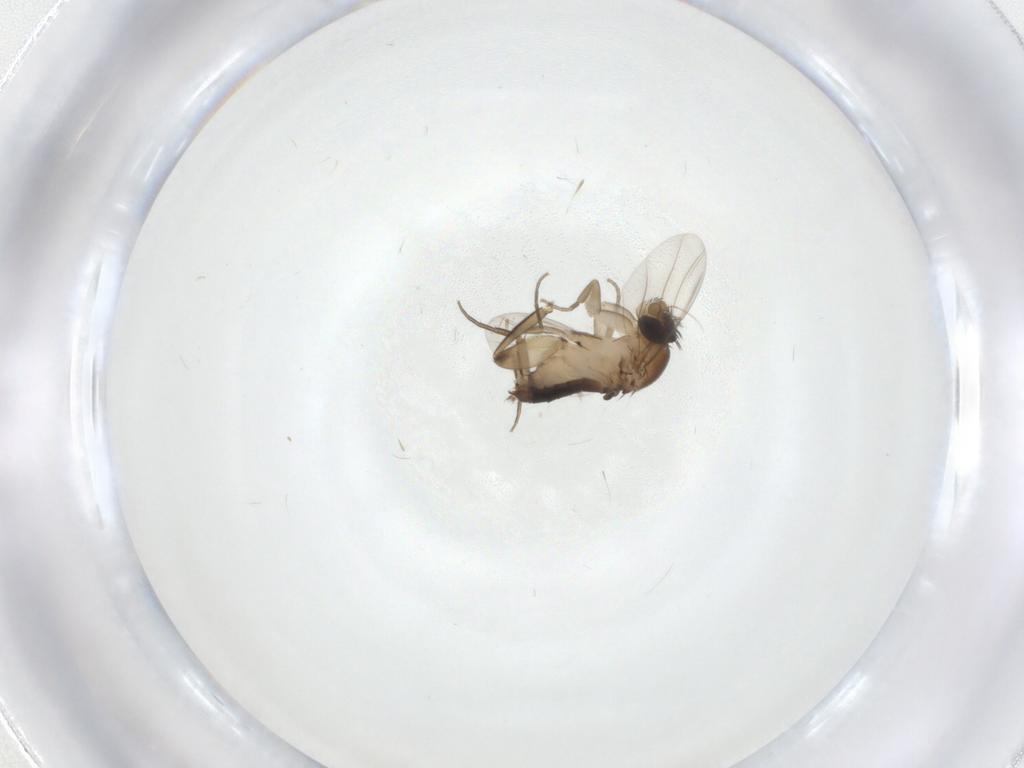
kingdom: Animalia
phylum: Arthropoda
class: Insecta
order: Diptera
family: Phoridae
